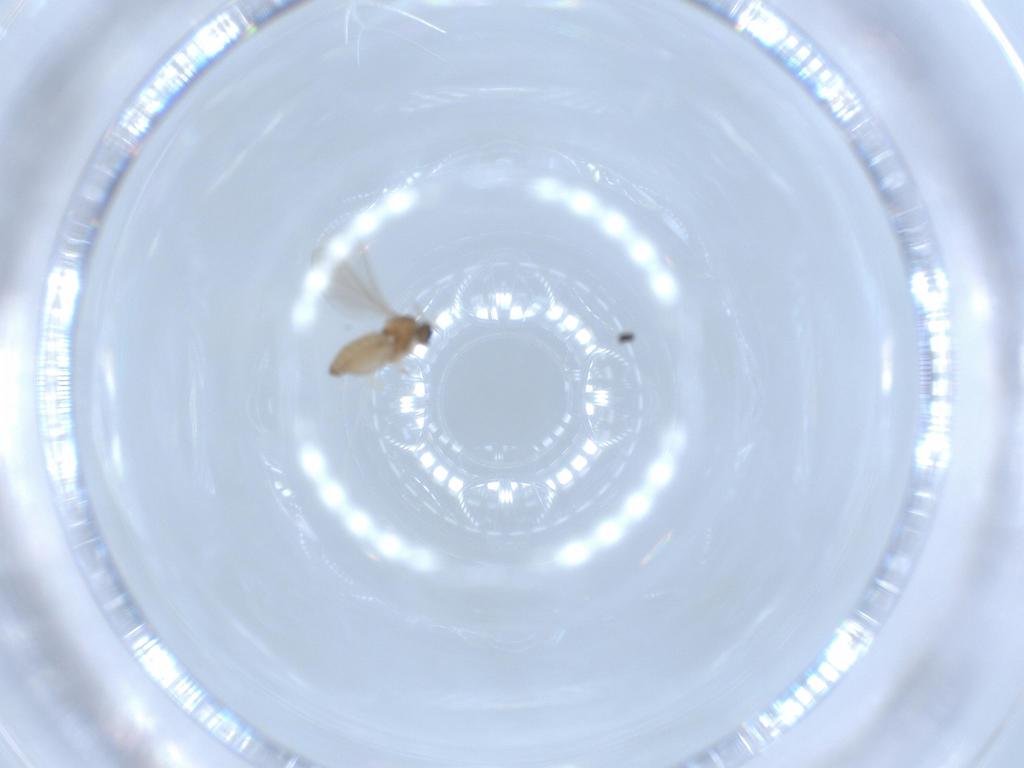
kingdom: Animalia
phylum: Arthropoda
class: Insecta
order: Diptera
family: Cecidomyiidae
